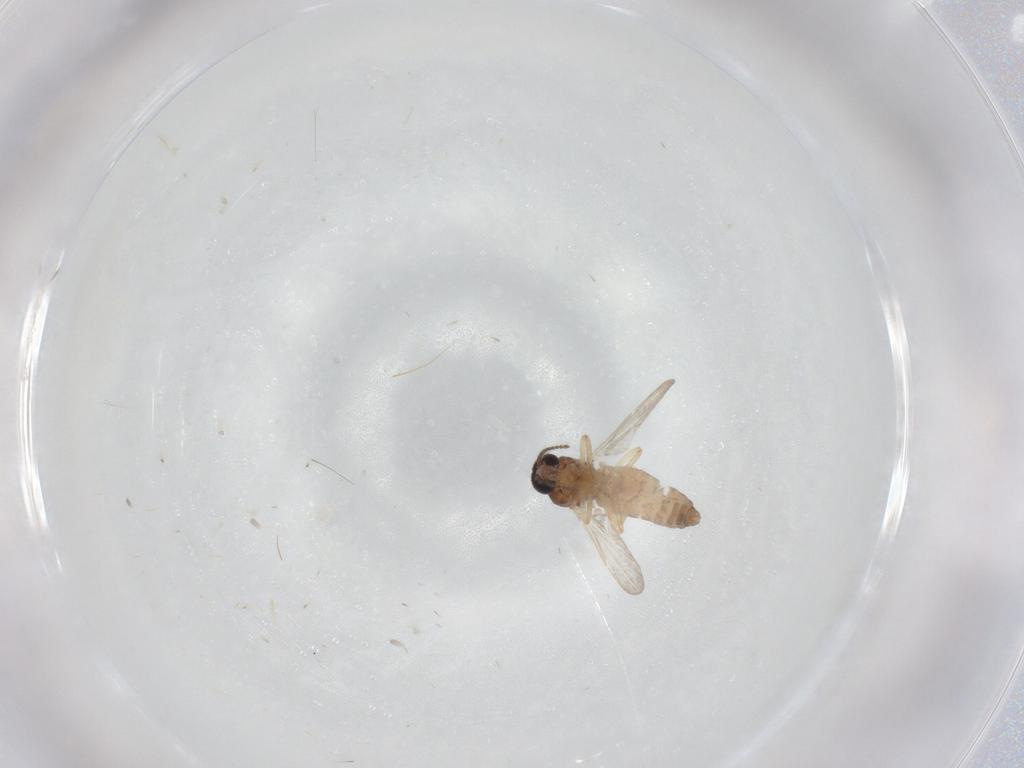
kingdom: Animalia
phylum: Arthropoda
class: Insecta
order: Diptera
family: Ceratopogonidae
